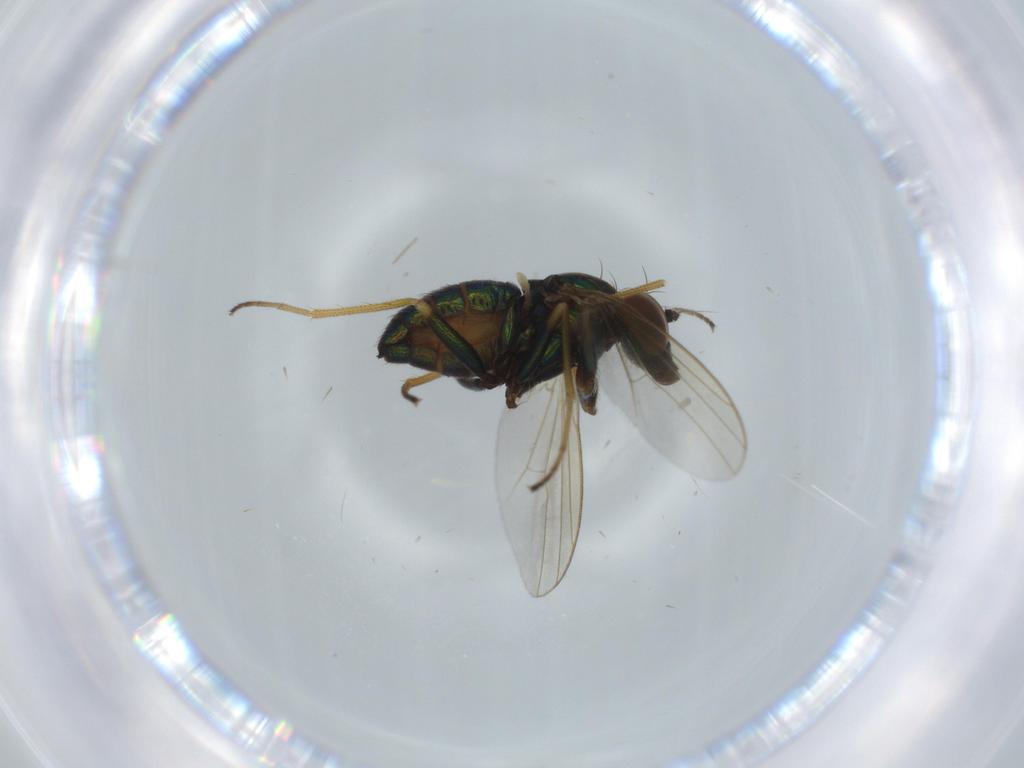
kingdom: Animalia
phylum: Arthropoda
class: Insecta
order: Diptera
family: Dolichopodidae
